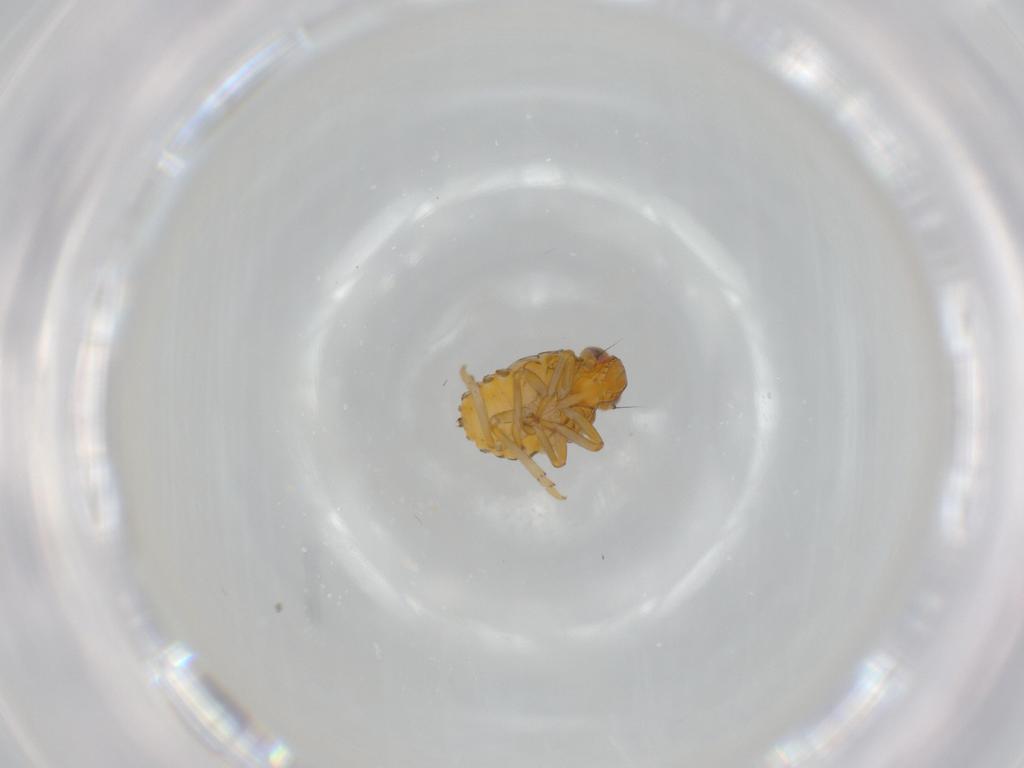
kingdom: Animalia
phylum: Arthropoda
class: Insecta
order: Hemiptera
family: Issidae
